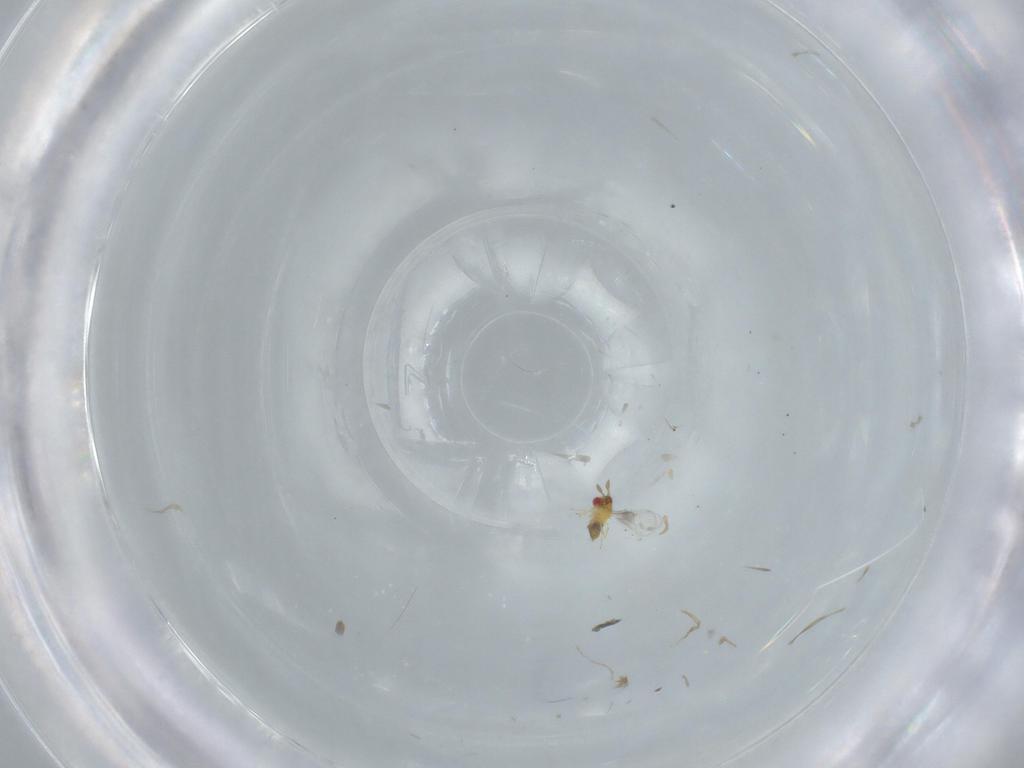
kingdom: Animalia
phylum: Arthropoda
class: Insecta
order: Hymenoptera
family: Trichogrammatidae
